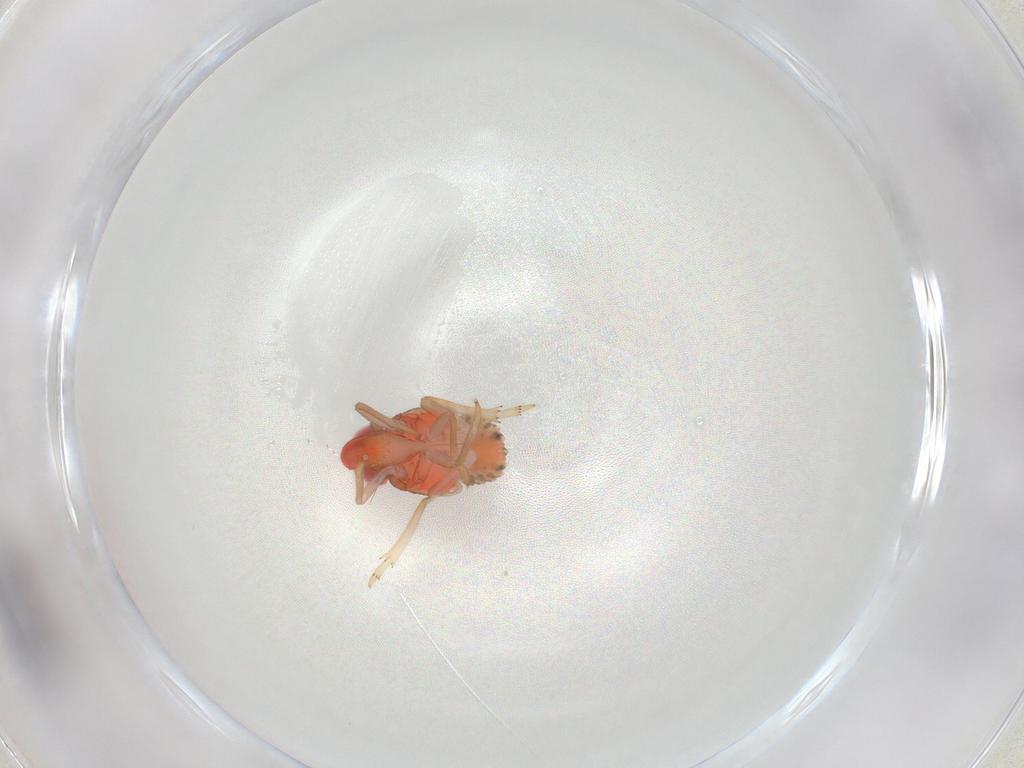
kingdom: Animalia
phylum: Arthropoda
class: Insecta
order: Hemiptera
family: Issidae
